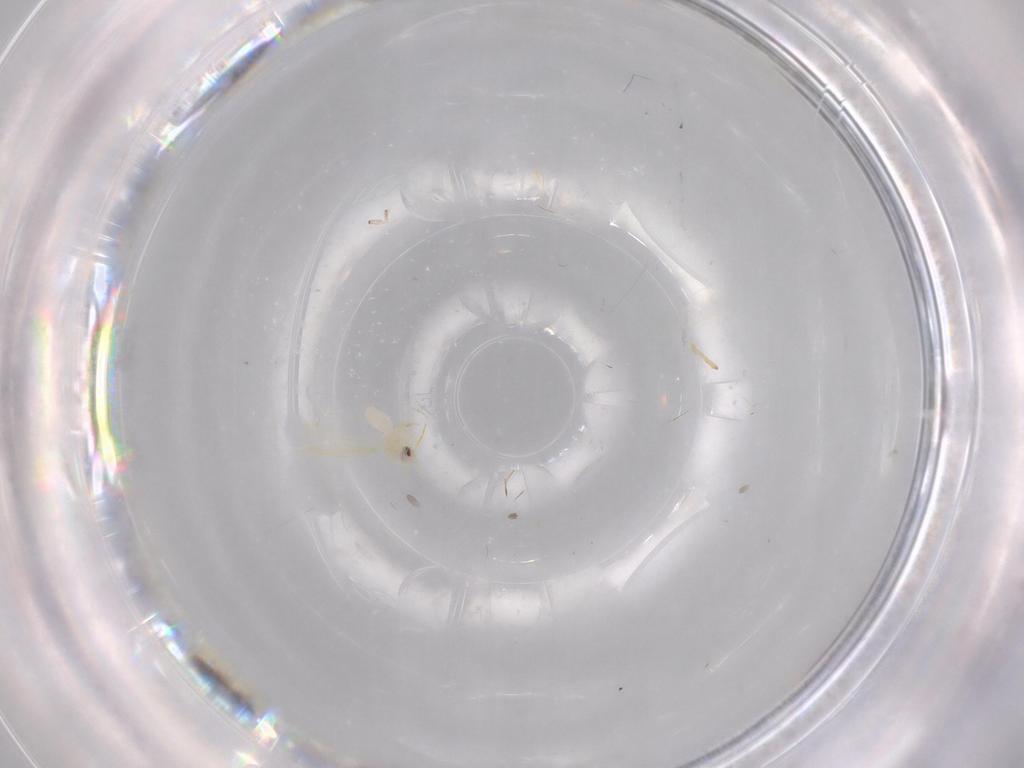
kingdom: Animalia
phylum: Arthropoda
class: Insecta
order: Hemiptera
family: Aleyrodidae
